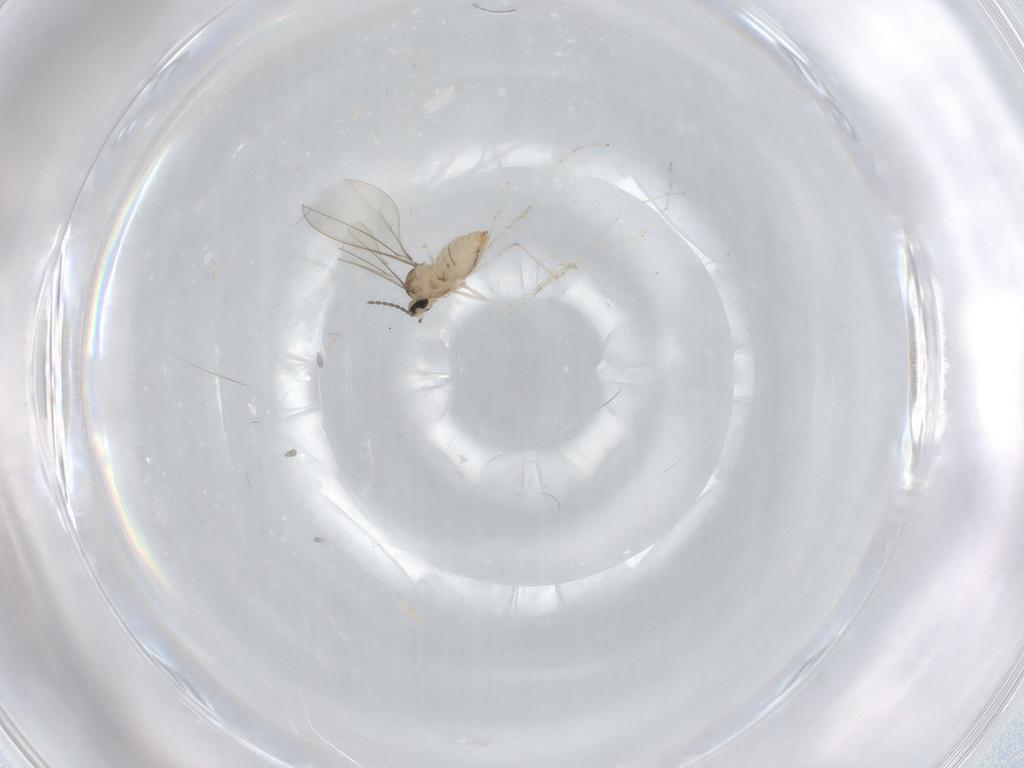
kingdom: Animalia
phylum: Arthropoda
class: Insecta
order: Diptera
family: Cecidomyiidae
